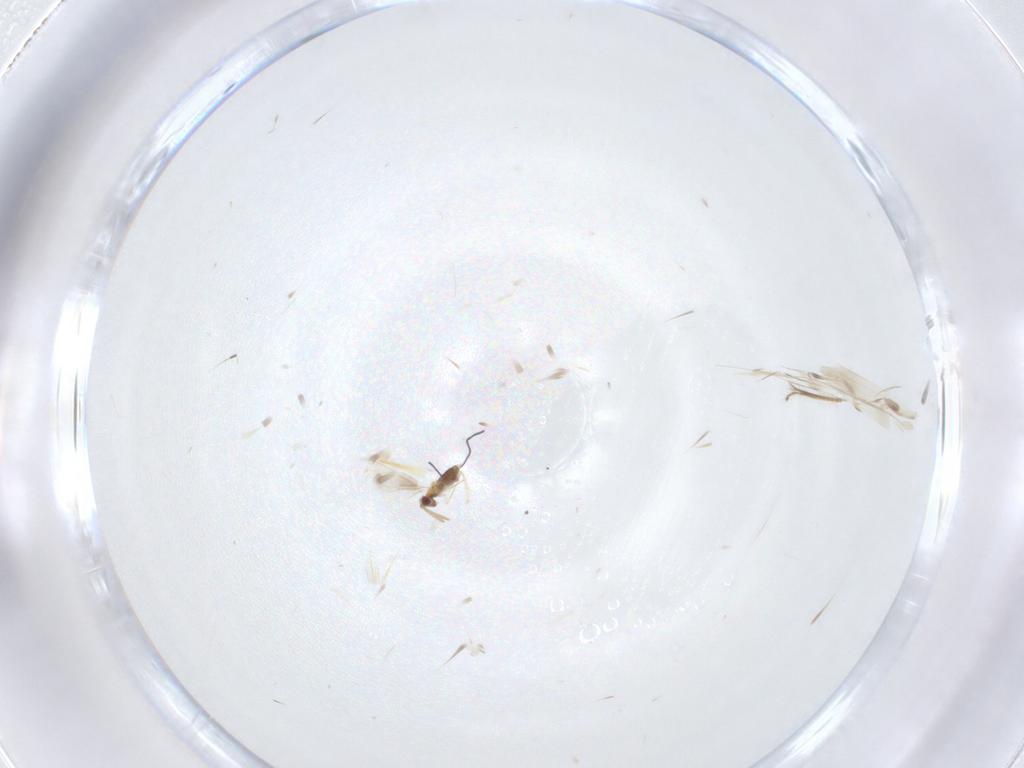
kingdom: Animalia
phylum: Arthropoda
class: Insecta
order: Hymenoptera
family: Aphelinidae
